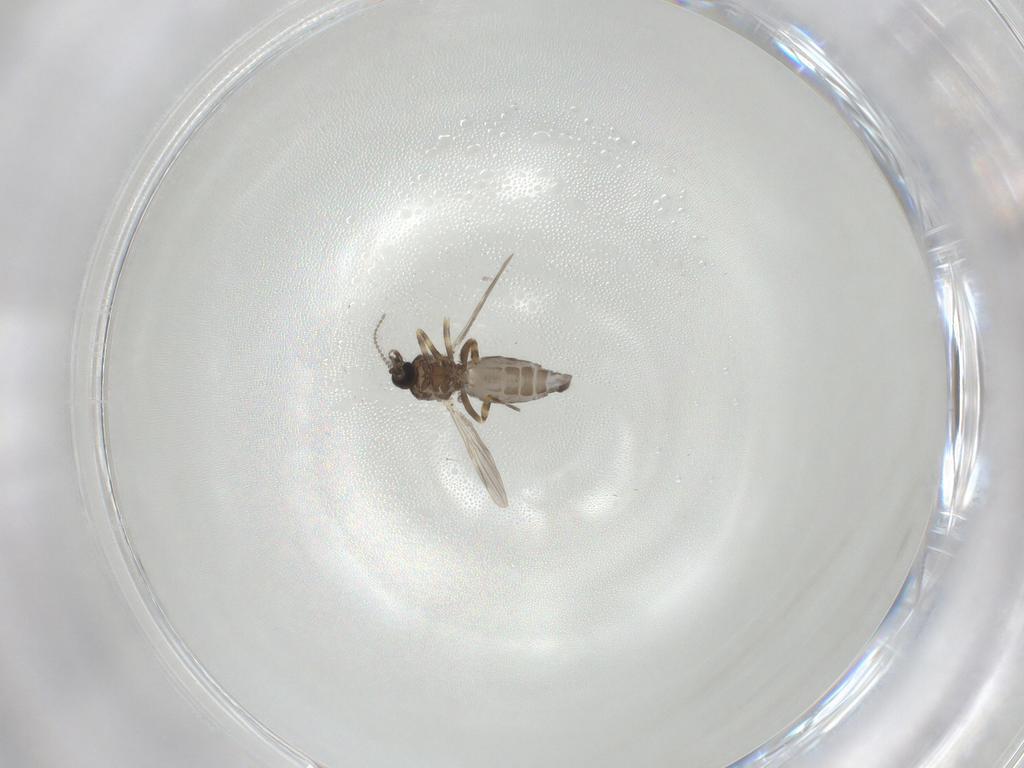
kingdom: Animalia
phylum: Arthropoda
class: Insecta
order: Diptera
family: Ceratopogonidae
